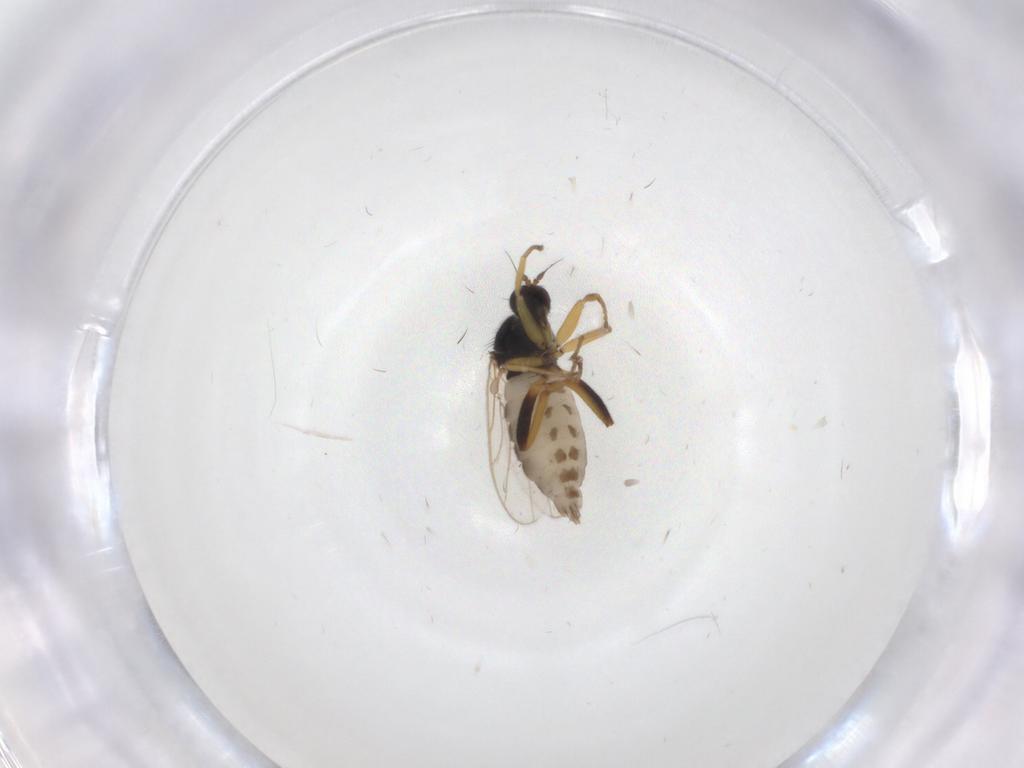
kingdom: Animalia
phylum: Arthropoda
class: Insecta
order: Diptera
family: Hybotidae
